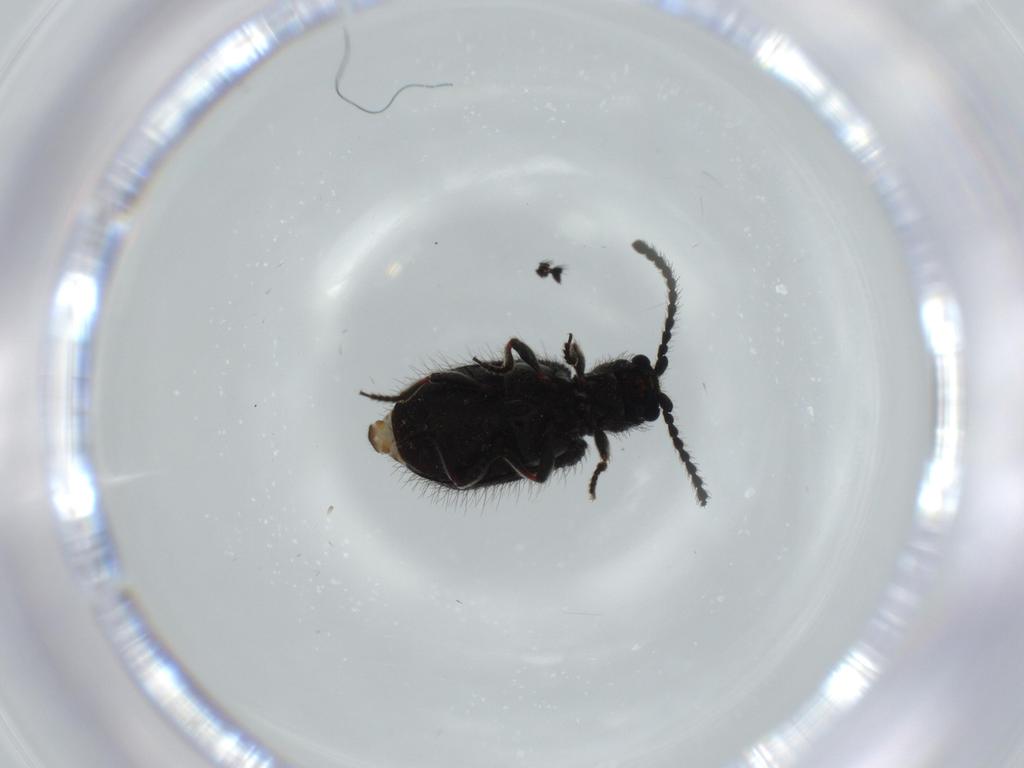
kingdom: Animalia
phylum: Arthropoda
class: Insecta
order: Coleoptera
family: Ptinidae
